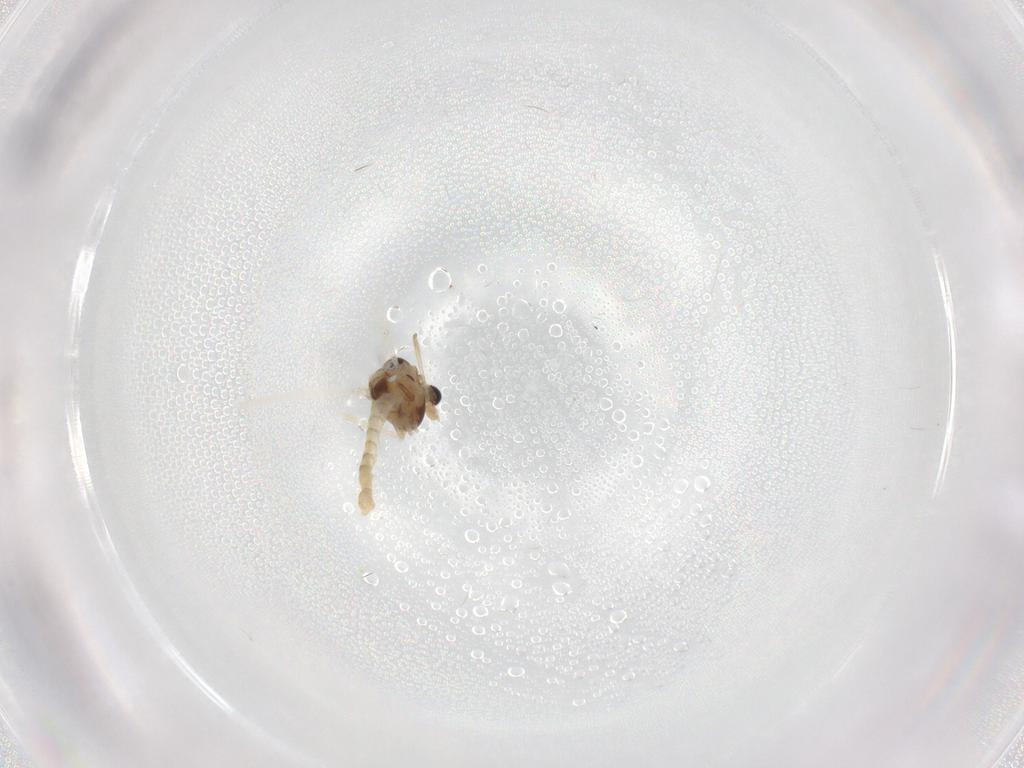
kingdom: Animalia
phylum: Arthropoda
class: Insecta
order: Diptera
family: Chironomidae
